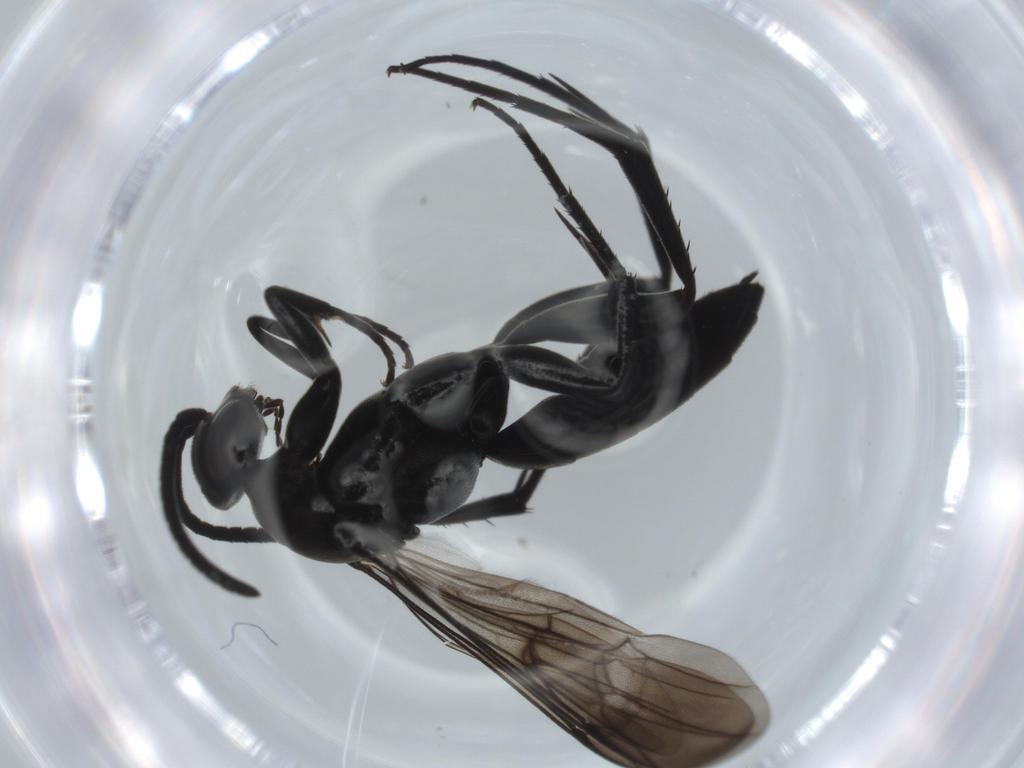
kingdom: Animalia
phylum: Arthropoda
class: Insecta
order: Hymenoptera
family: Pompilidae
